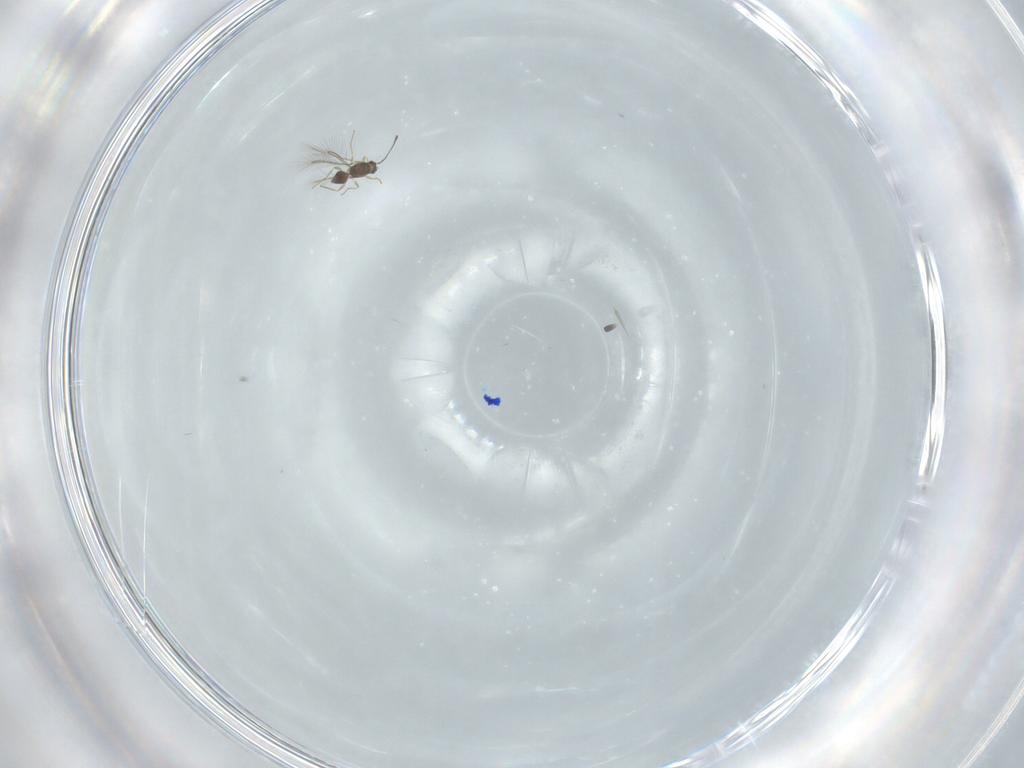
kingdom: Animalia
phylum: Arthropoda
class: Insecta
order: Hymenoptera
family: Mymaridae
